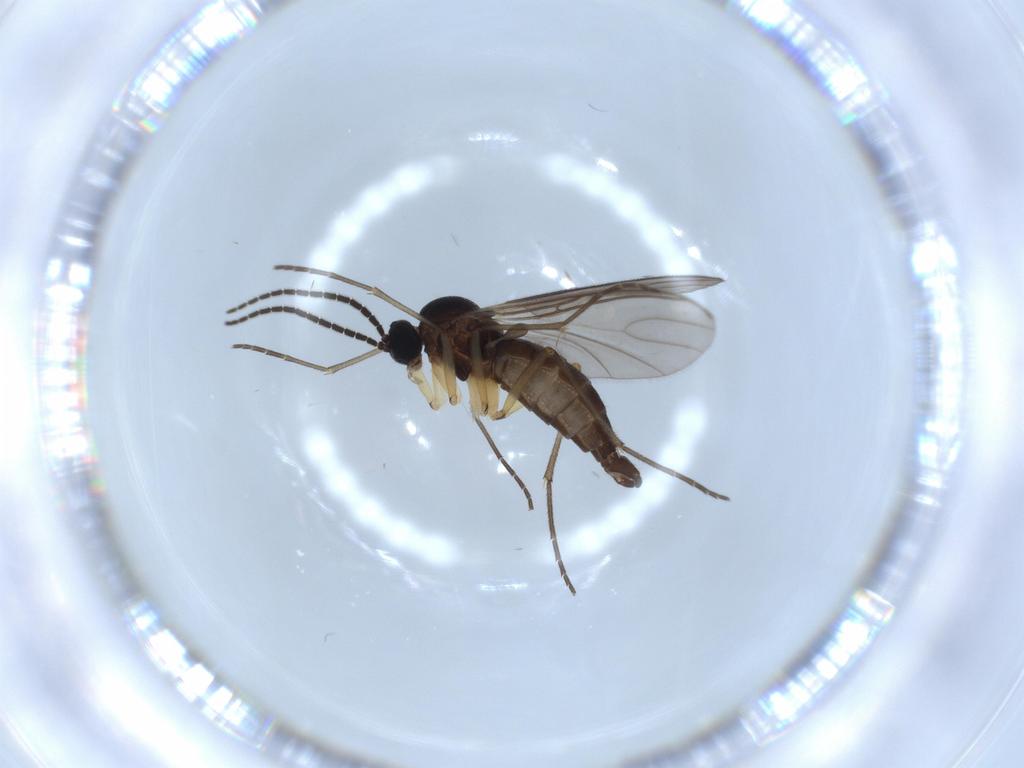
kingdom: Animalia
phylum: Arthropoda
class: Insecta
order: Diptera
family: Sciaridae
